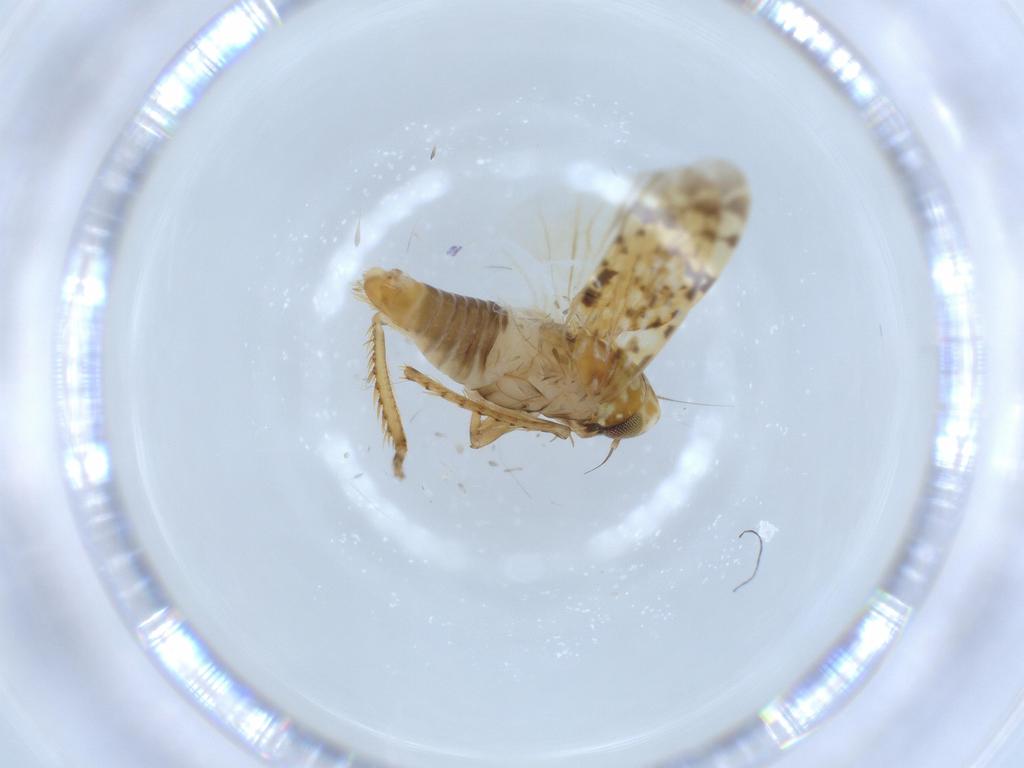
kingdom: Animalia
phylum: Arthropoda
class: Insecta
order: Hemiptera
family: Cicadellidae
